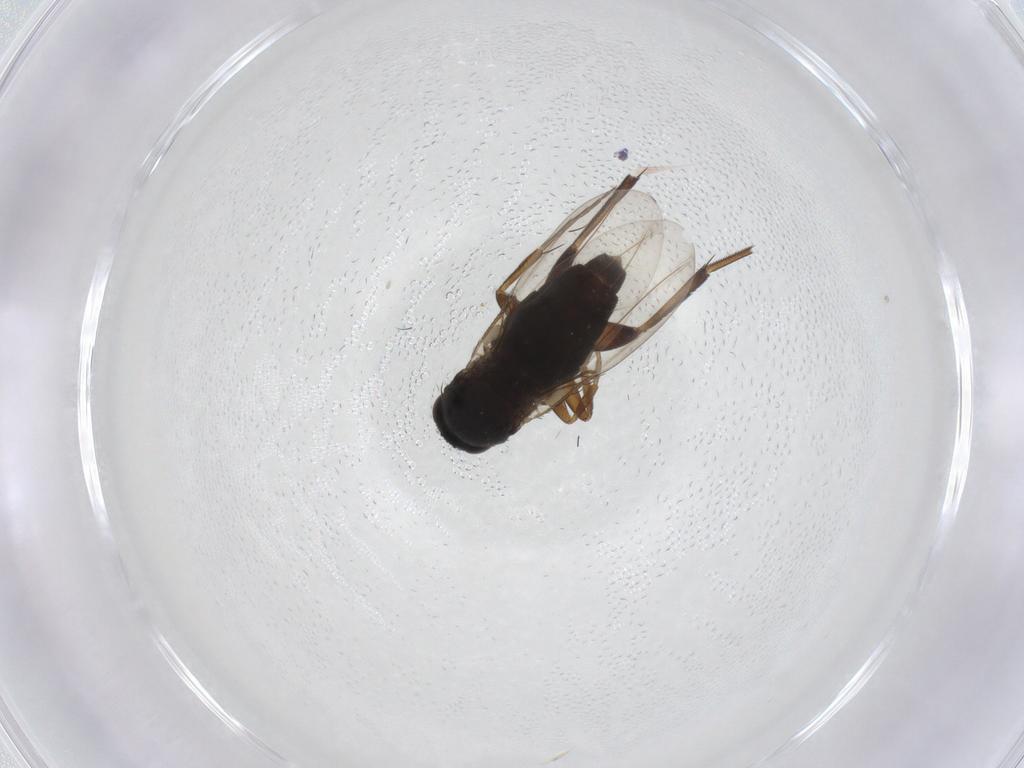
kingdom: Animalia
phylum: Arthropoda
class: Insecta
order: Diptera
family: Phoridae
